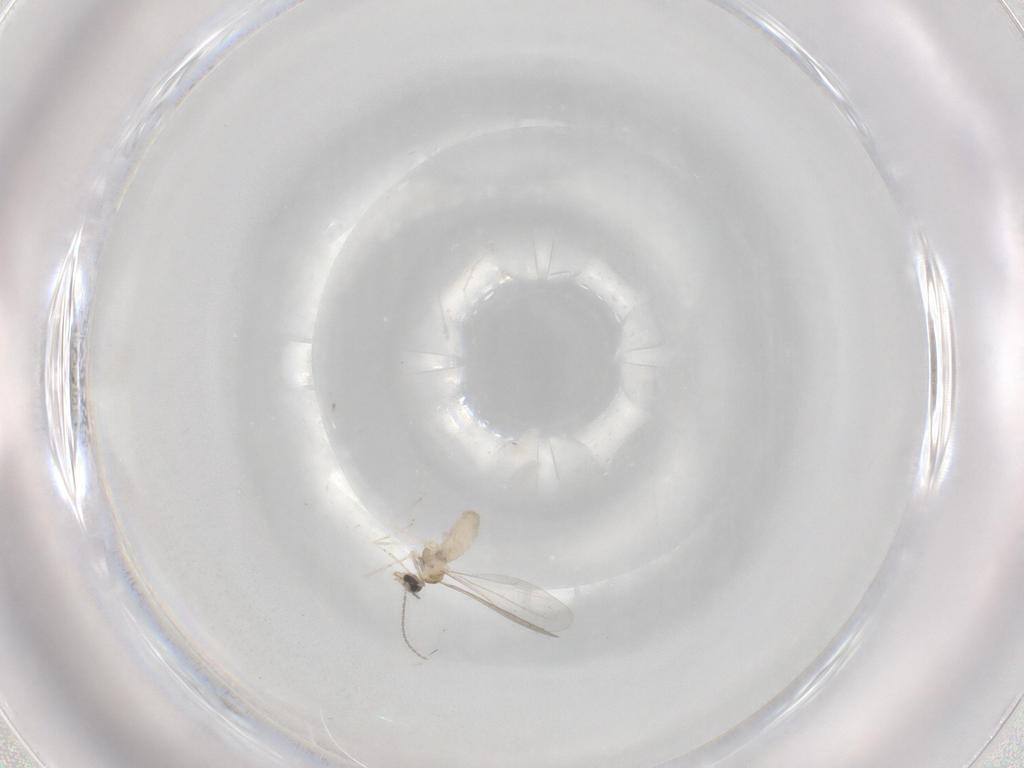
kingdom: Animalia
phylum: Arthropoda
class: Insecta
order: Diptera
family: Cecidomyiidae
